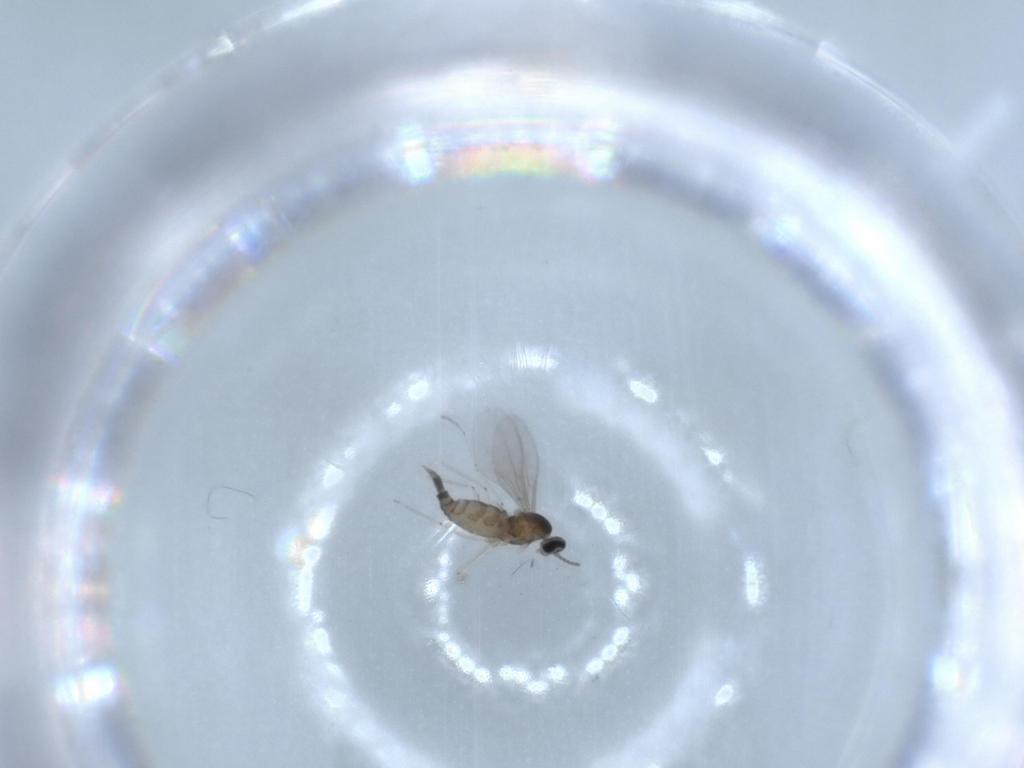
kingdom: Animalia
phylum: Arthropoda
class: Insecta
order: Diptera
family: Cecidomyiidae
